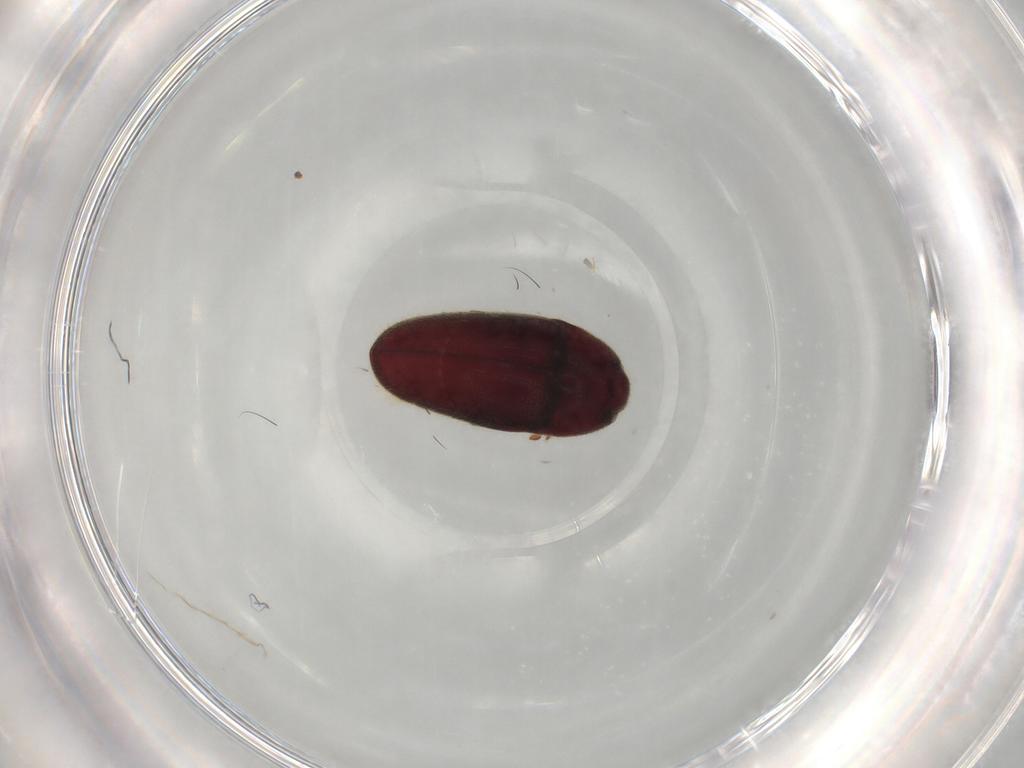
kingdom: Animalia
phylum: Arthropoda
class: Insecta
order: Coleoptera
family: Throscidae
